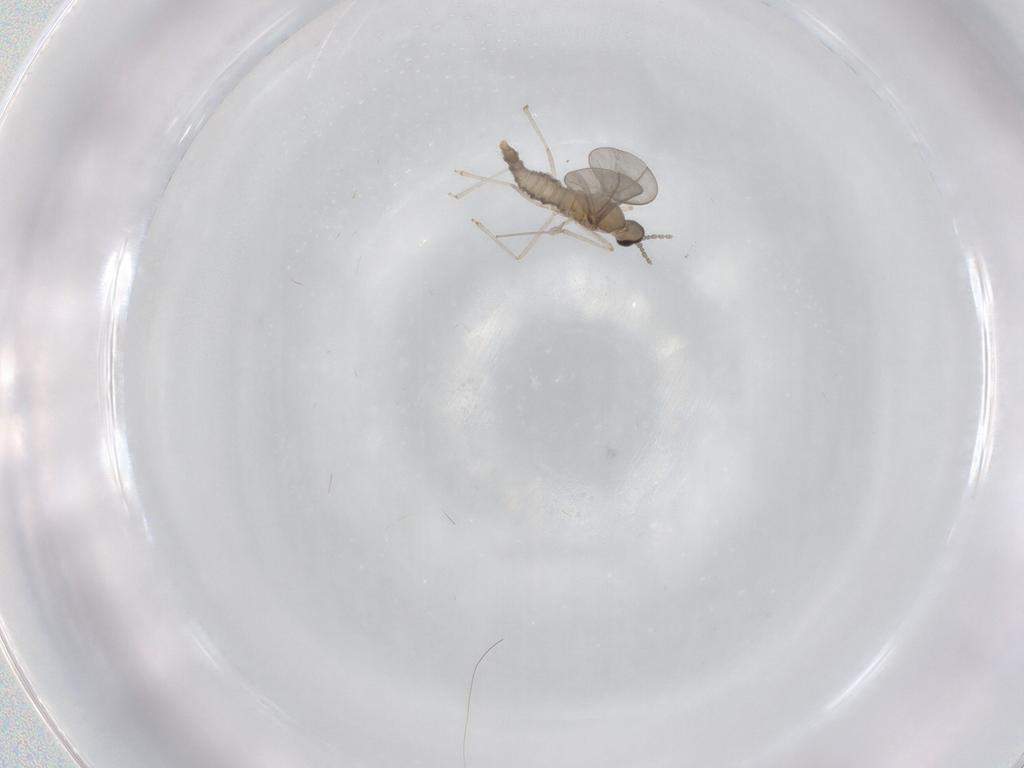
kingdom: Animalia
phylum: Arthropoda
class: Insecta
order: Diptera
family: Cecidomyiidae
